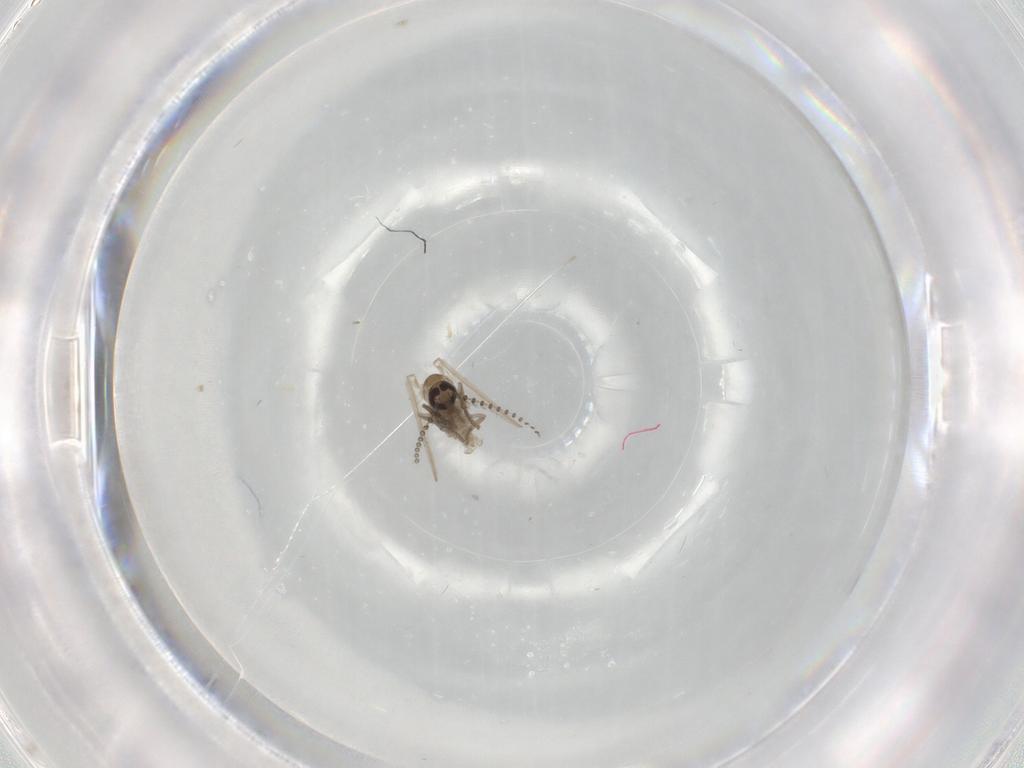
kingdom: Animalia
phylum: Arthropoda
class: Insecta
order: Diptera
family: Psychodidae
